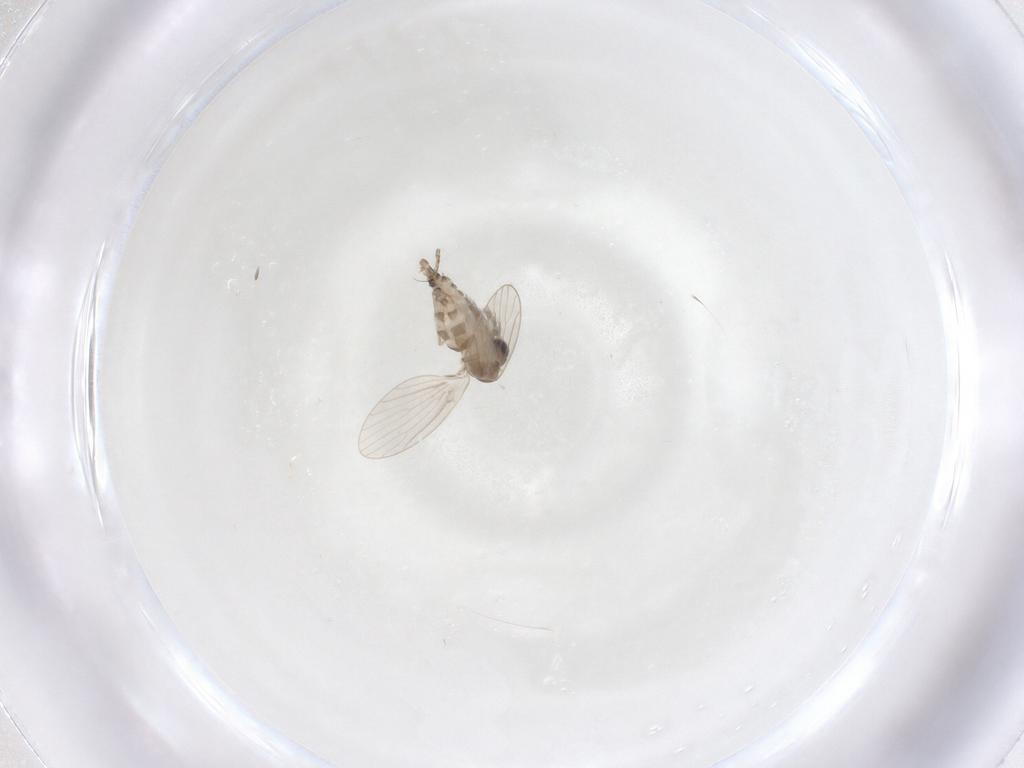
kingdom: Animalia
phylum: Arthropoda
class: Insecta
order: Diptera
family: Cecidomyiidae
